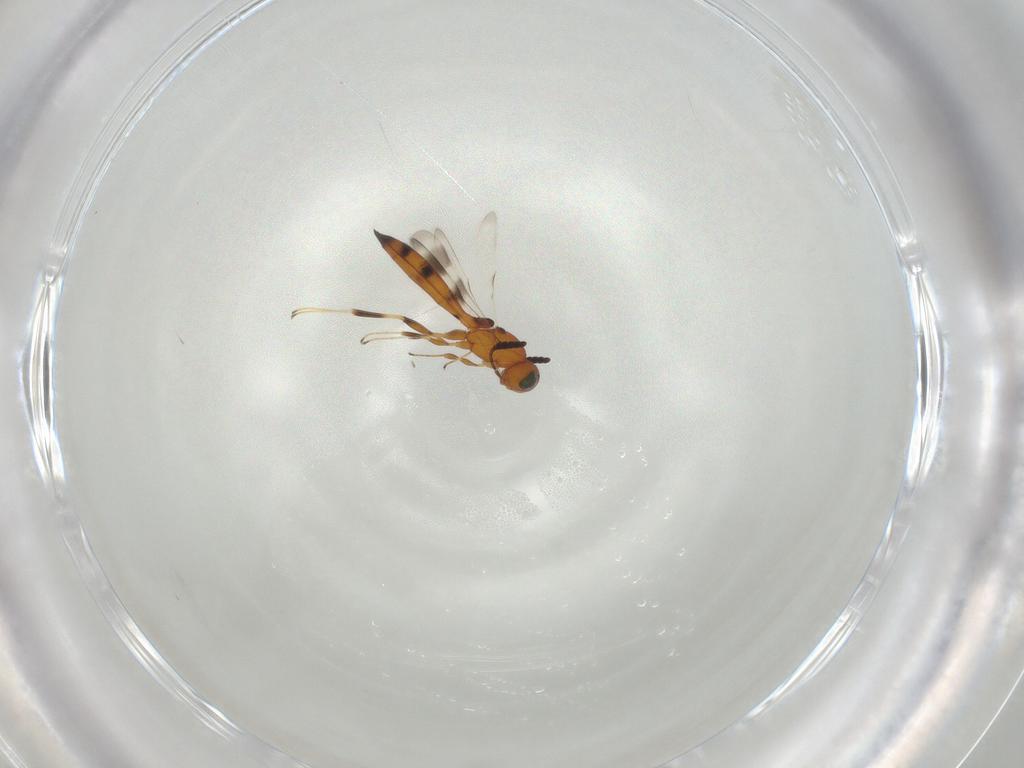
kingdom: Animalia
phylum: Arthropoda
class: Insecta
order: Hymenoptera
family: Scelionidae
